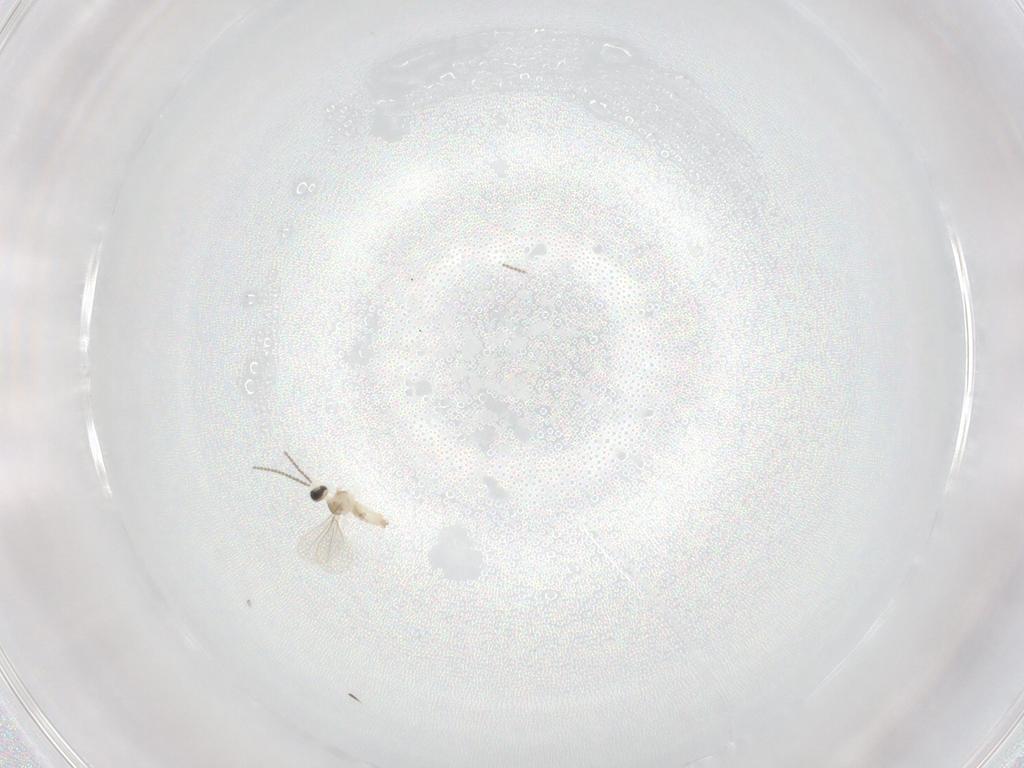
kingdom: Animalia
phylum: Arthropoda
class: Insecta
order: Diptera
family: Cecidomyiidae
